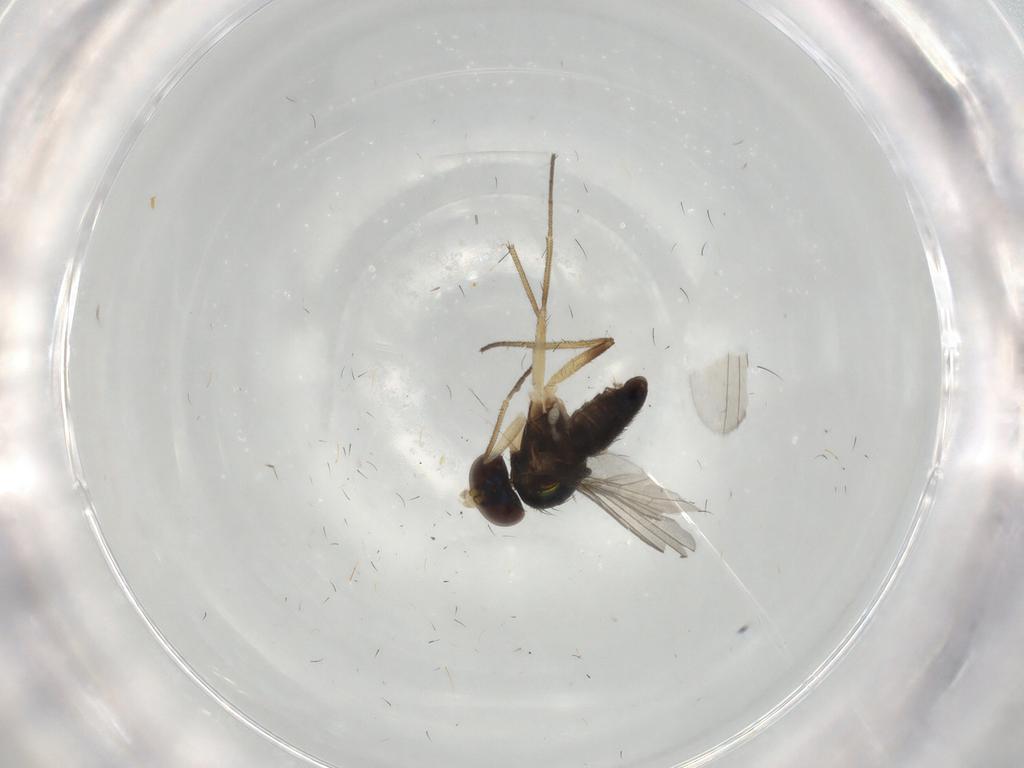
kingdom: Animalia
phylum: Arthropoda
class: Insecta
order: Diptera
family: Dolichopodidae
